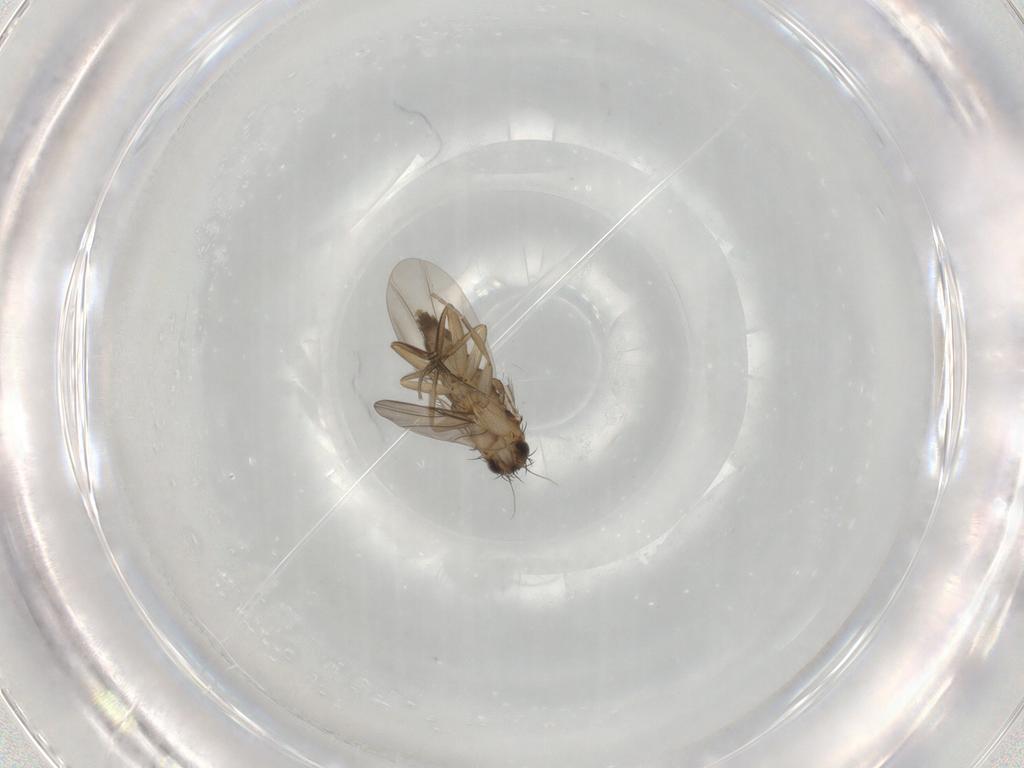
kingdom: Animalia
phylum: Arthropoda
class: Insecta
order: Diptera
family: Phoridae
